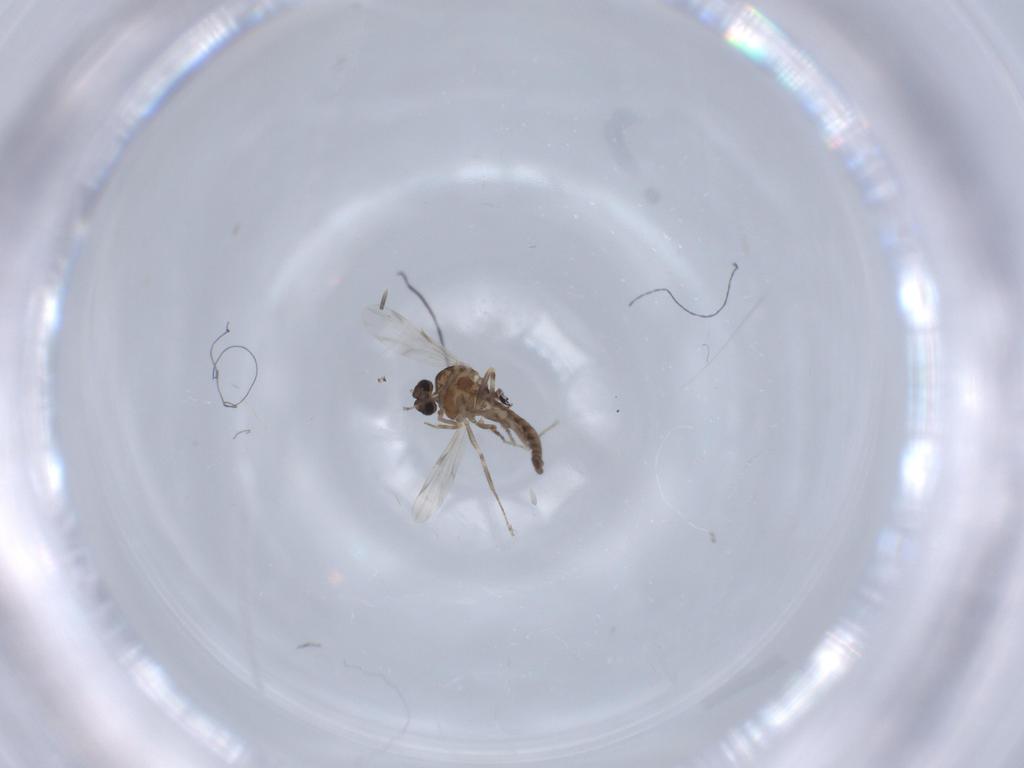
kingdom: Animalia
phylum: Arthropoda
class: Insecta
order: Diptera
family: Ceratopogonidae
